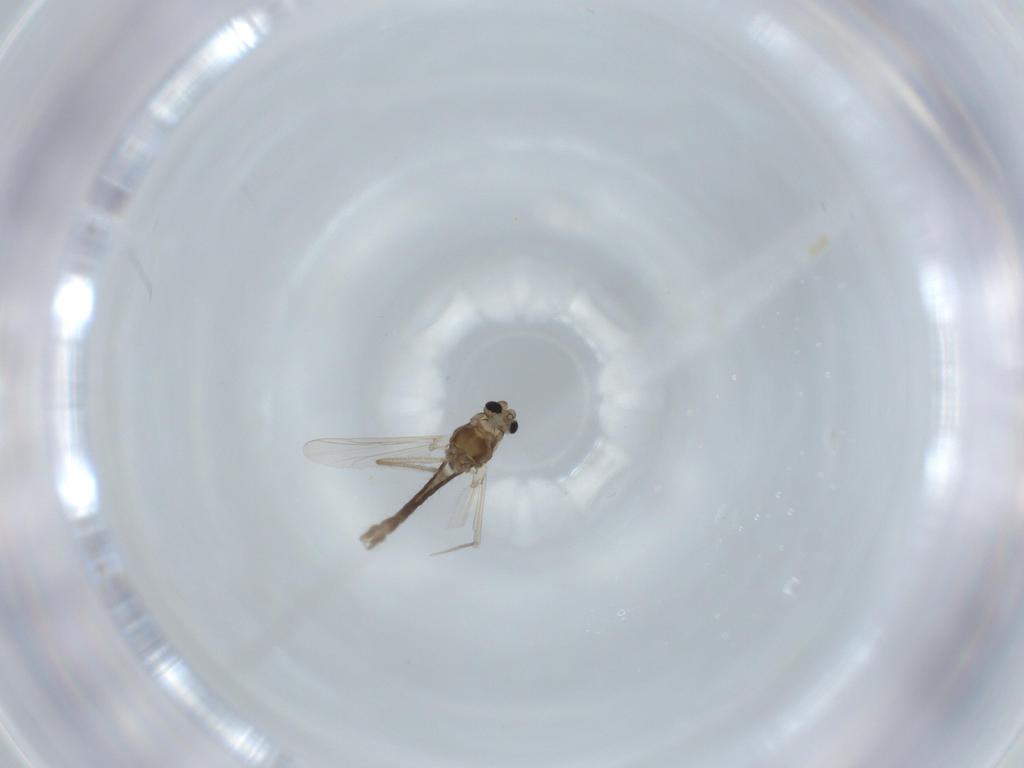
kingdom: Animalia
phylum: Arthropoda
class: Insecta
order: Diptera
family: Chironomidae
